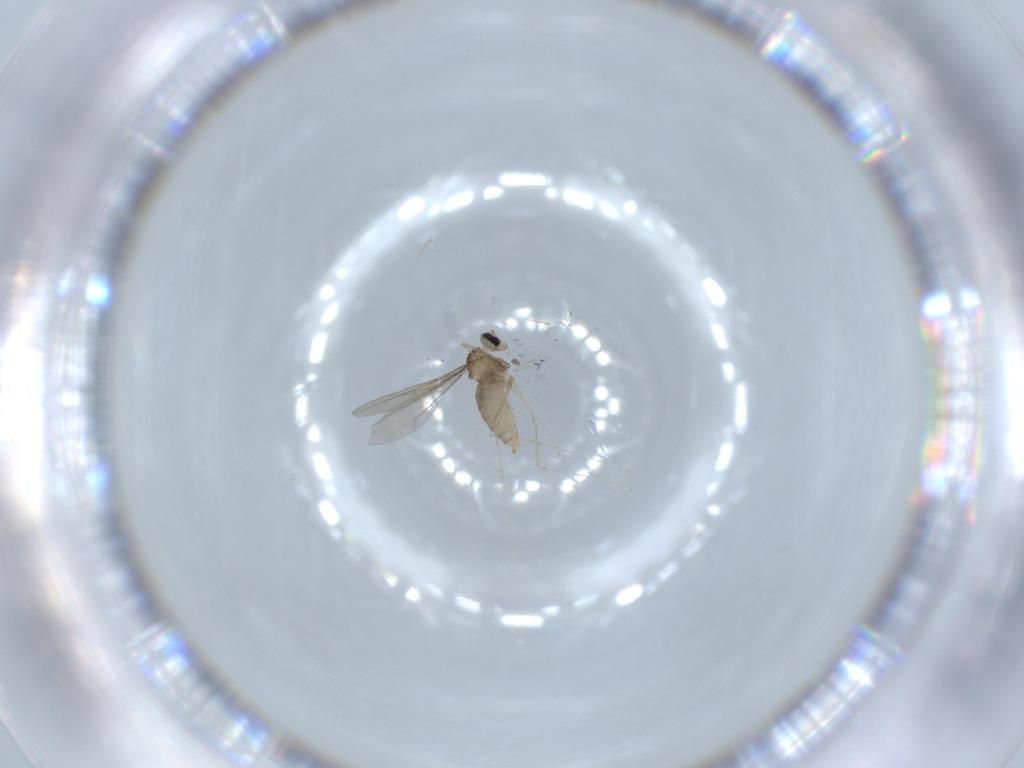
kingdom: Animalia
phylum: Arthropoda
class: Insecta
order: Diptera
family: Cecidomyiidae
